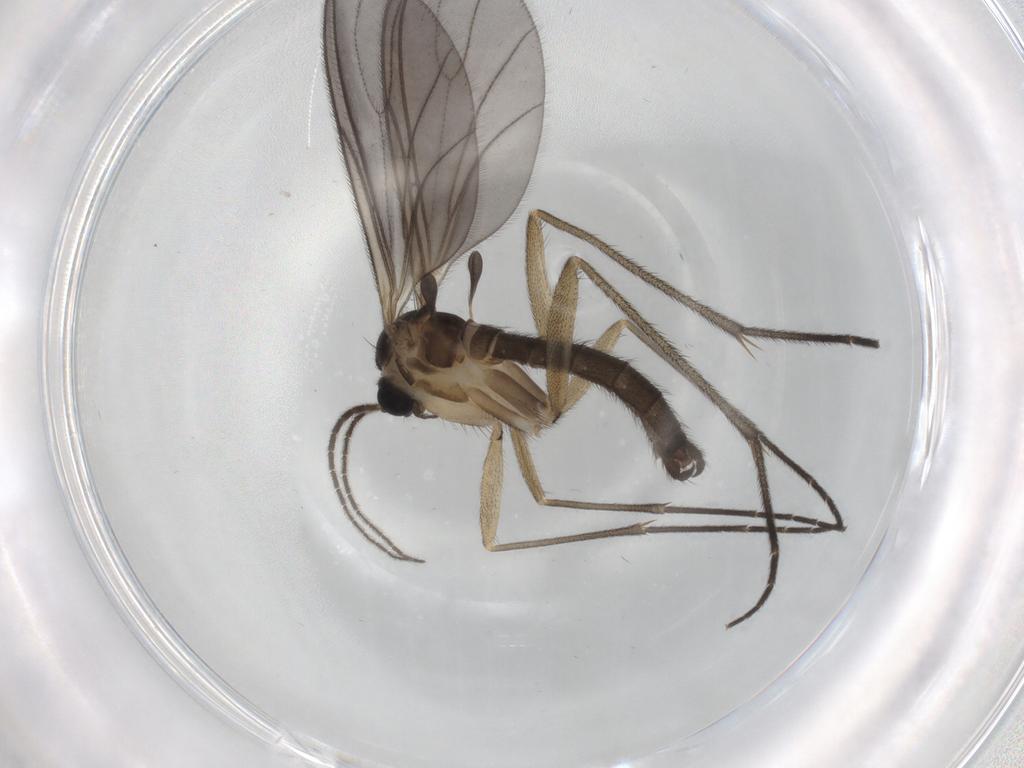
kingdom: Animalia
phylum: Arthropoda
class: Insecta
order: Diptera
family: Sciaridae
